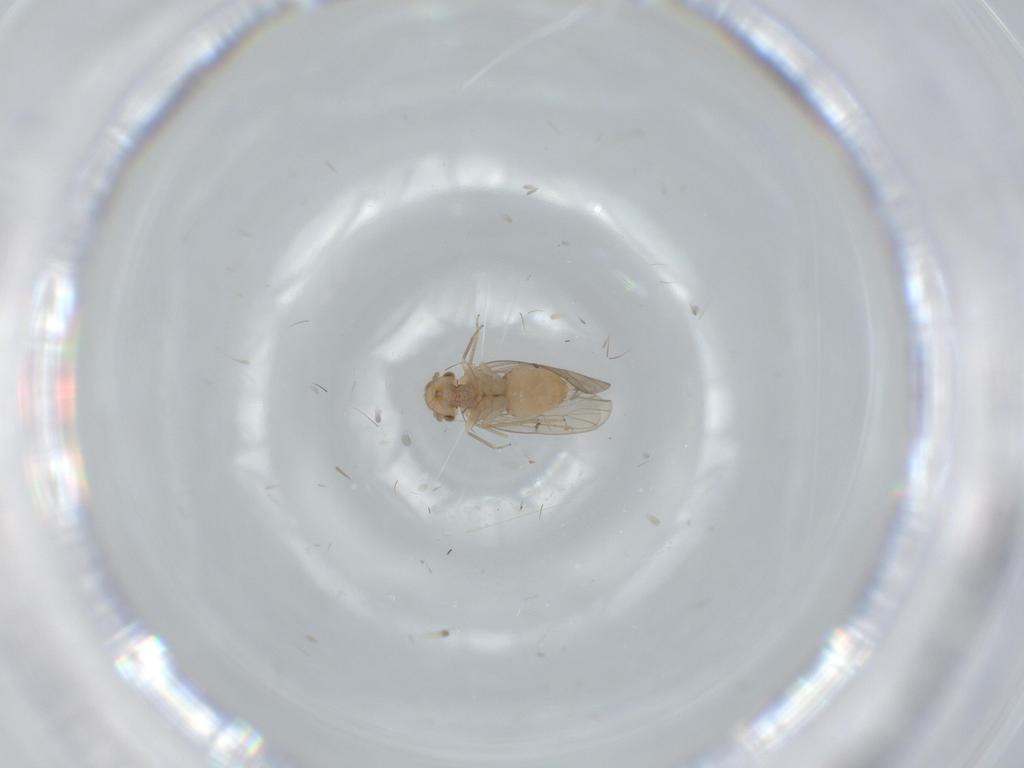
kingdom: Animalia
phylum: Arthropoda
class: Insecta
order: Psocodea
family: Ectopsocidae
